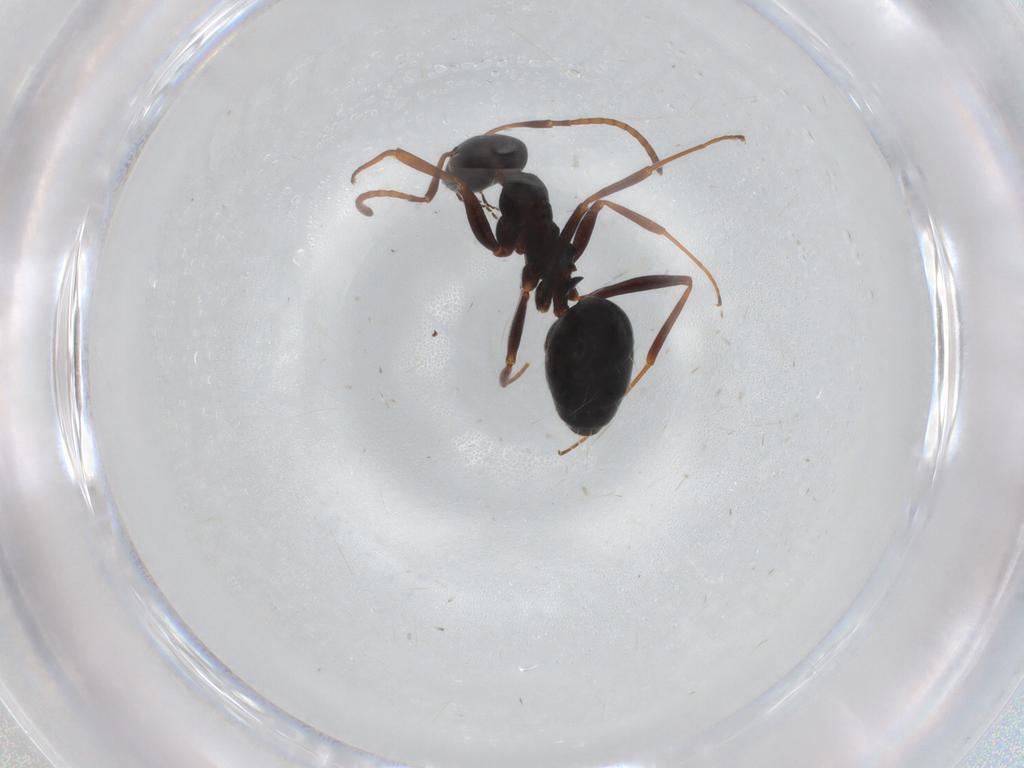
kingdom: Animalia
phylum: Arthropoda
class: Insecta
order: Hymenoptera
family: Formicidae
